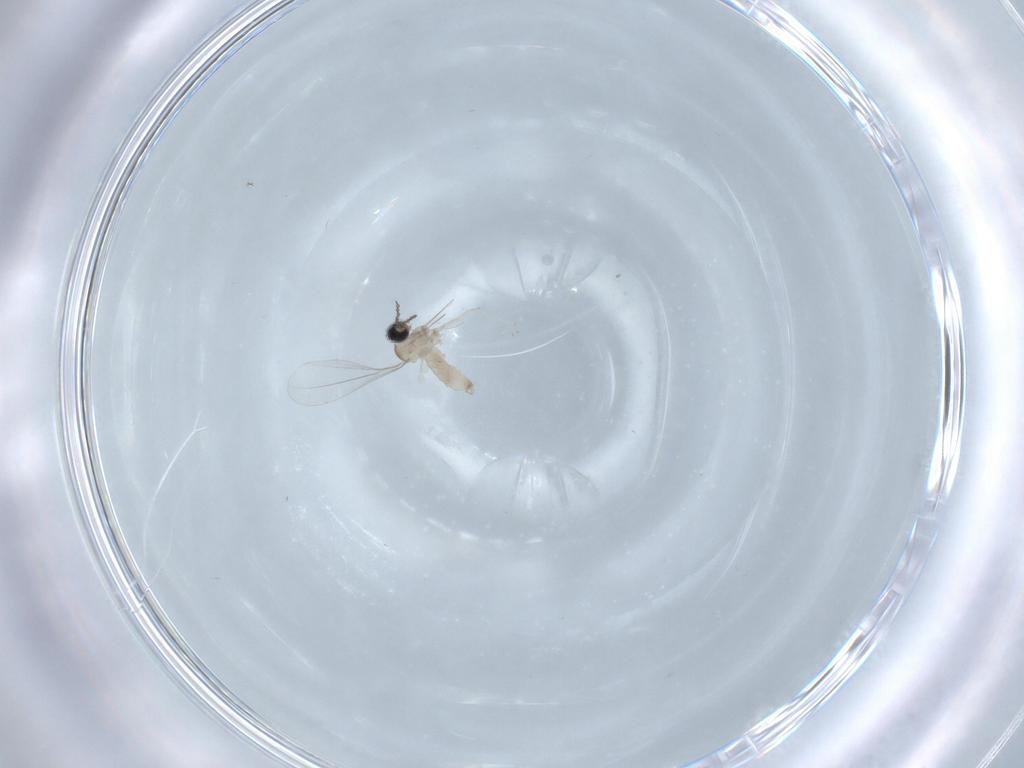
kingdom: Animalia
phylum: Arthropoda
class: Insecta
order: Diptera
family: Cecidomyiidae
